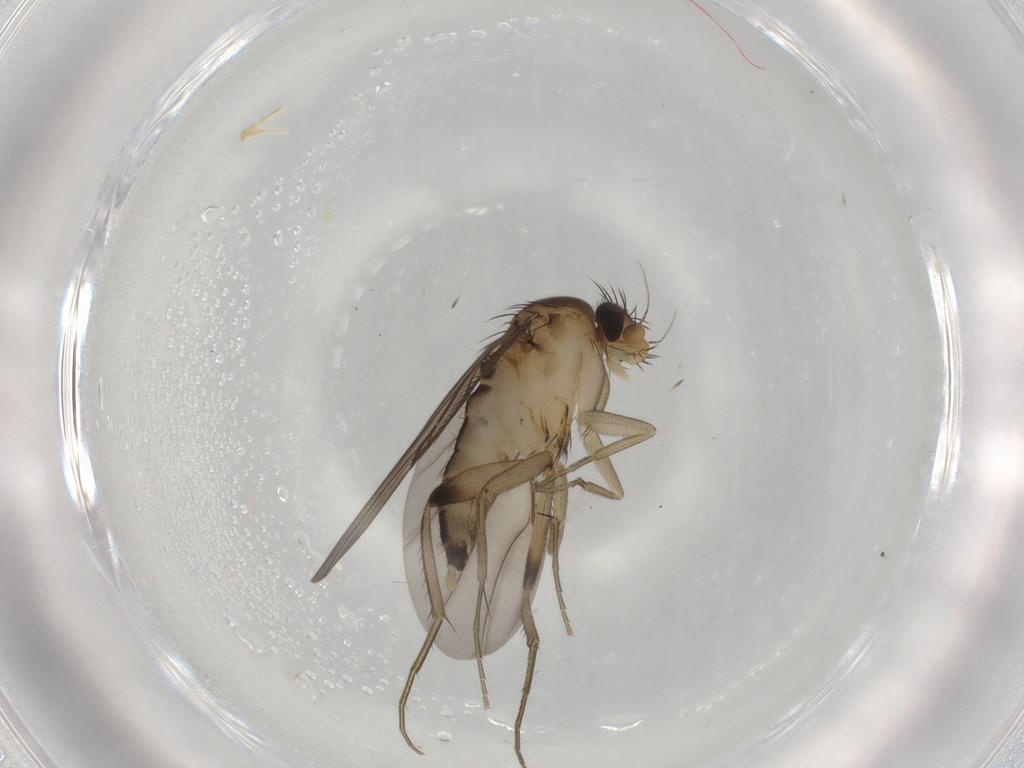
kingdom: Animalia
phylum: Arthropoda
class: Insecta
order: Diptera
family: Phoridae
